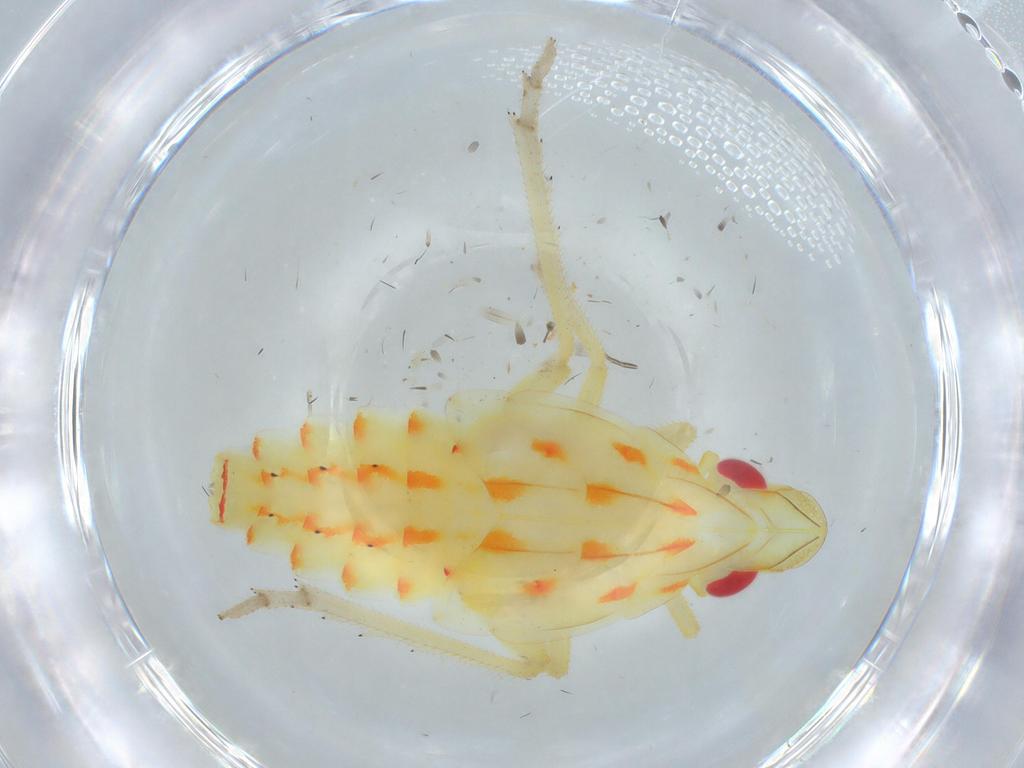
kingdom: Animalia
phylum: Arthropoda
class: Insecta
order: Hemiptera
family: Tropiduchidae
